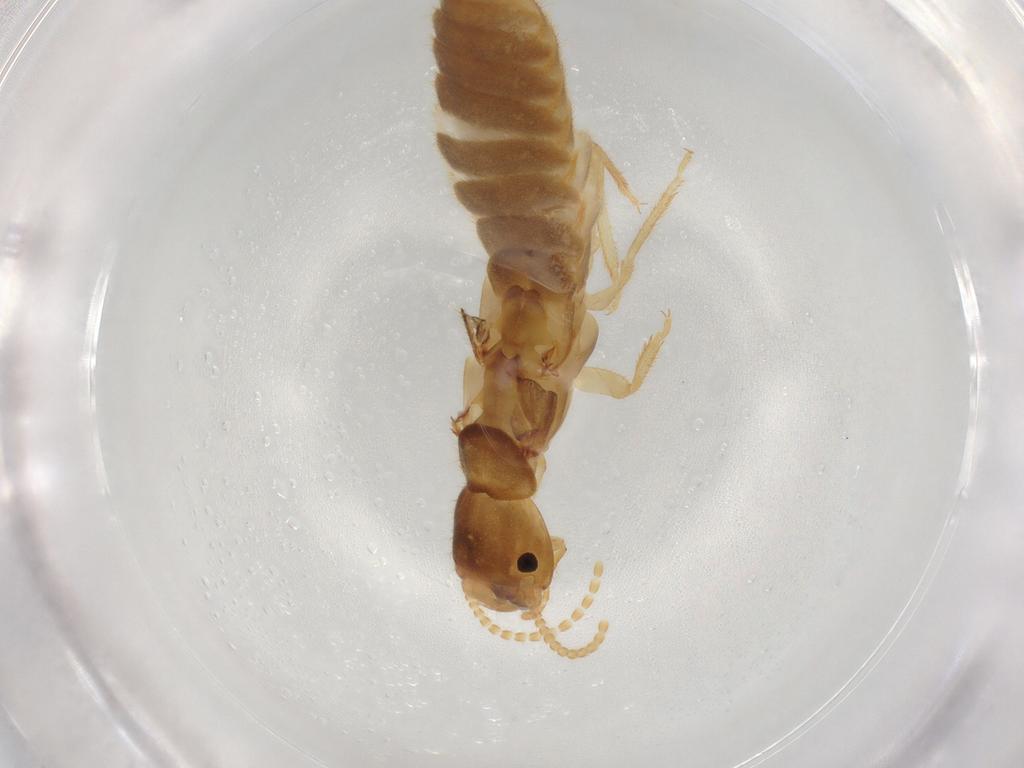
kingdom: Animalia
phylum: Arthropoda
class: Insecta
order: Blattodea
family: Rhinotermitidae
